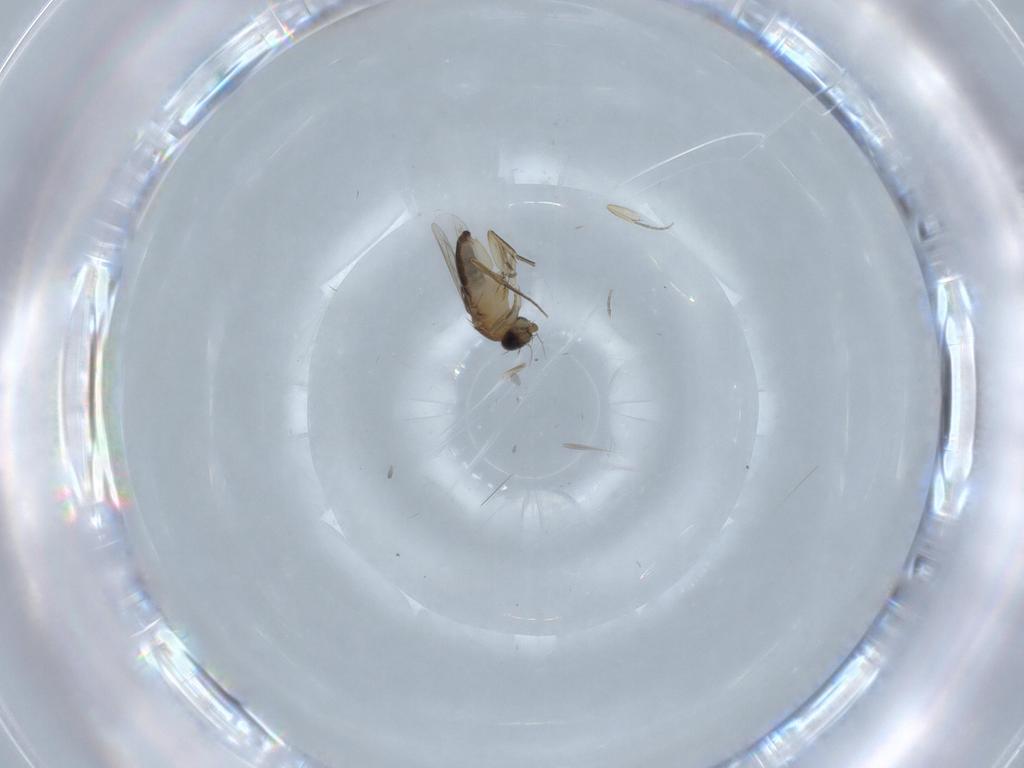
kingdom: Animalia
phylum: Arthropoda
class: Insecta
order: Diptera
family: Phoridae
